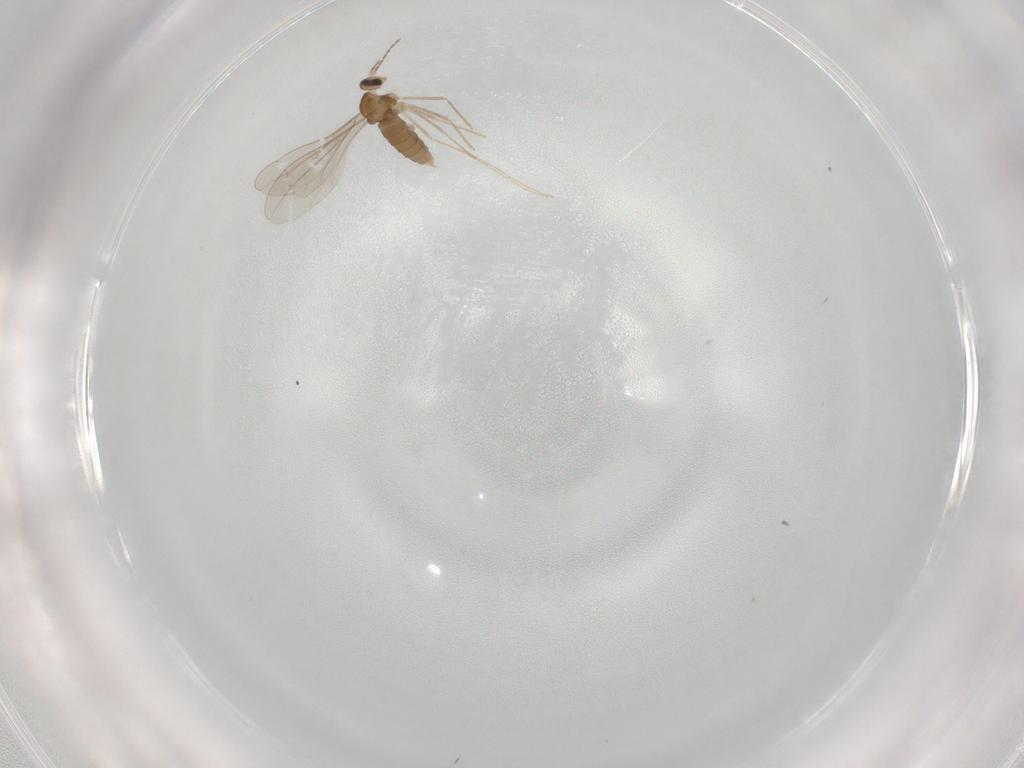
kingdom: Animalia
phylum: Arthropoda
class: Insecta
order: Diptera
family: Cecidomyiidae
